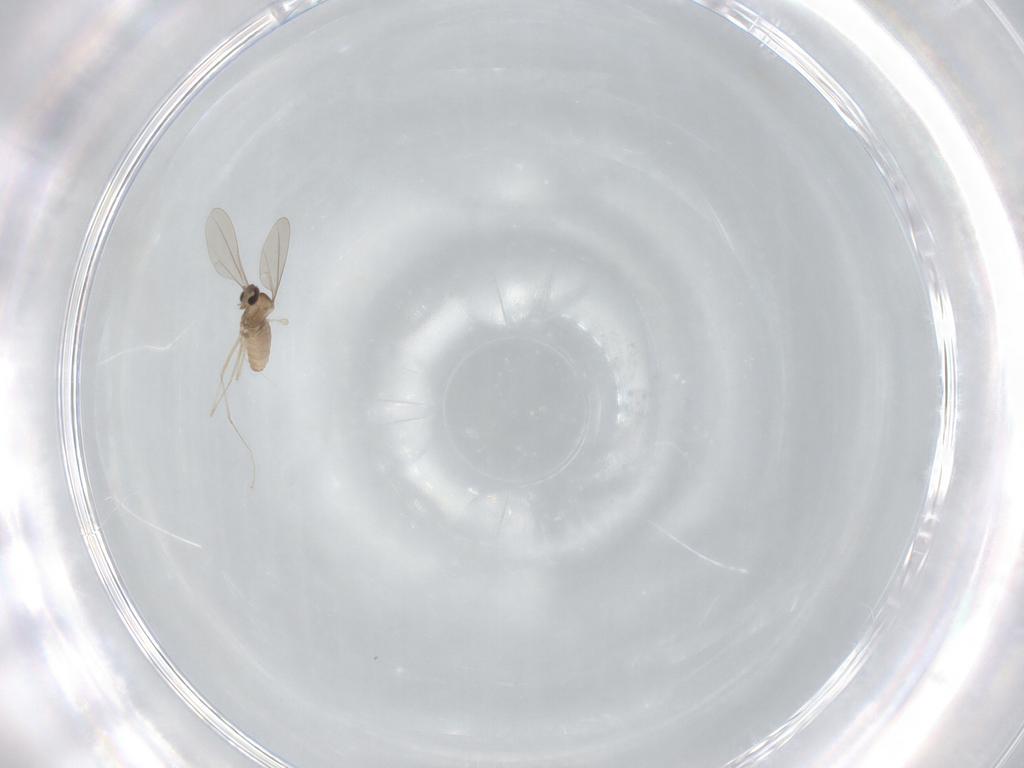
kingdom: Animalia
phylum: Arthropoda
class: Insecta
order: Diptera
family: Cecidomyiidae
